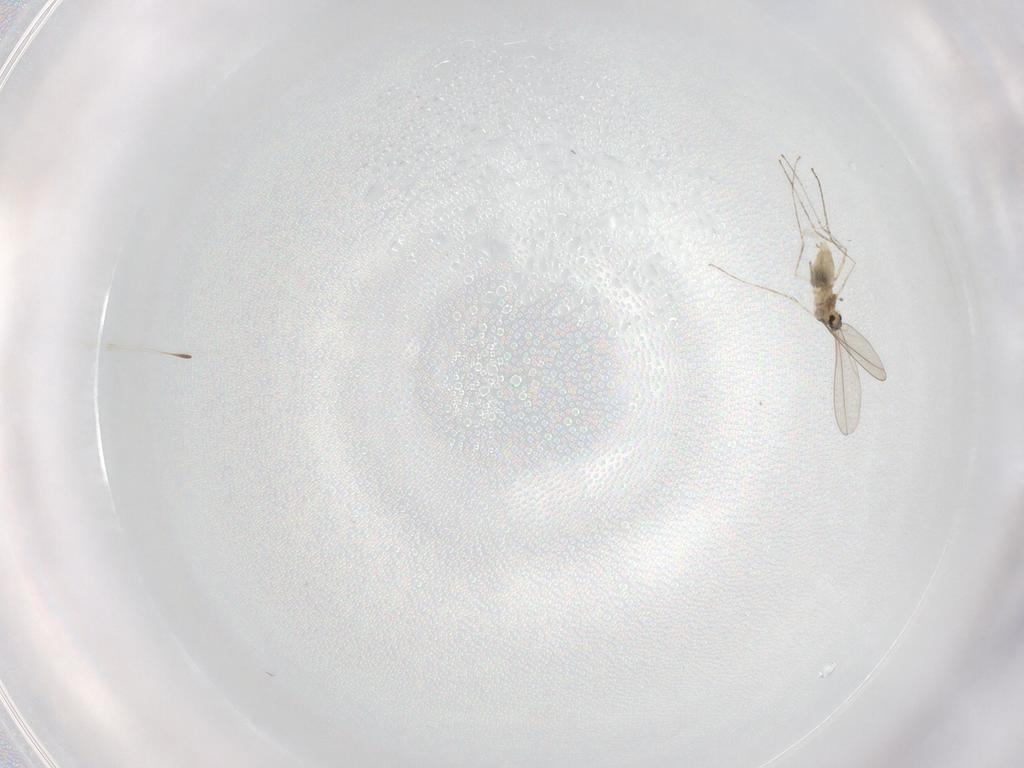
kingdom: Animalia
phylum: Arthropoda
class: Insecta
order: Diptera
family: Cecidomyiidae
